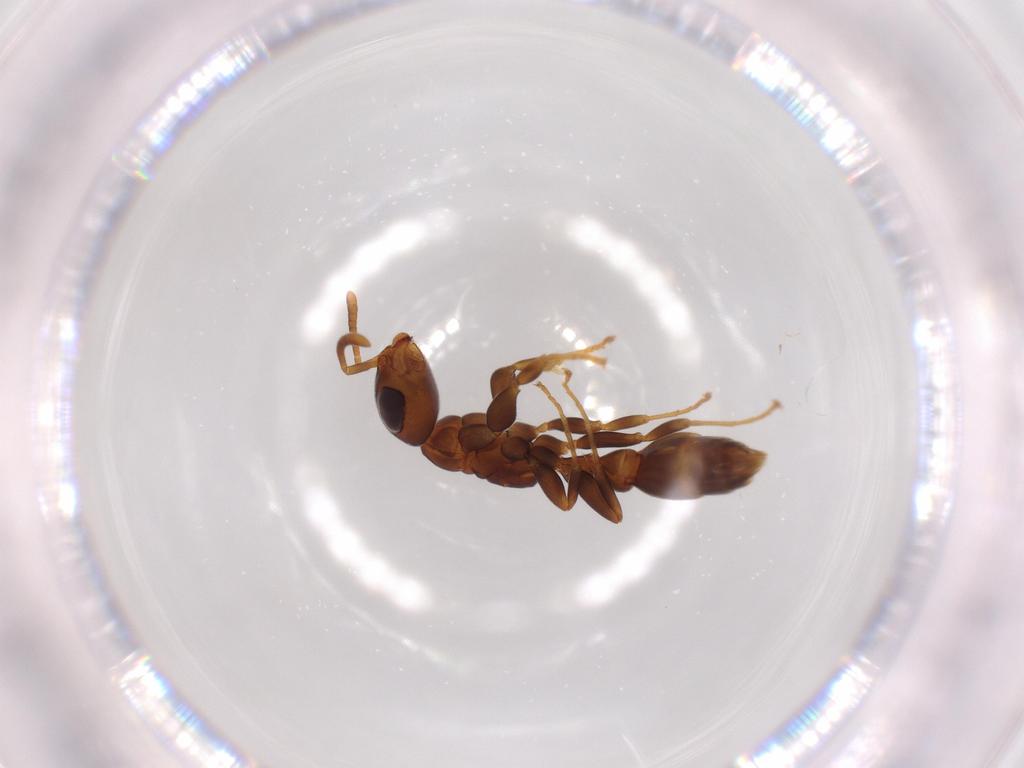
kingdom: Animalia
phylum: Arthropoda
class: Insecta
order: Hymenoptera
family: Formicidae
